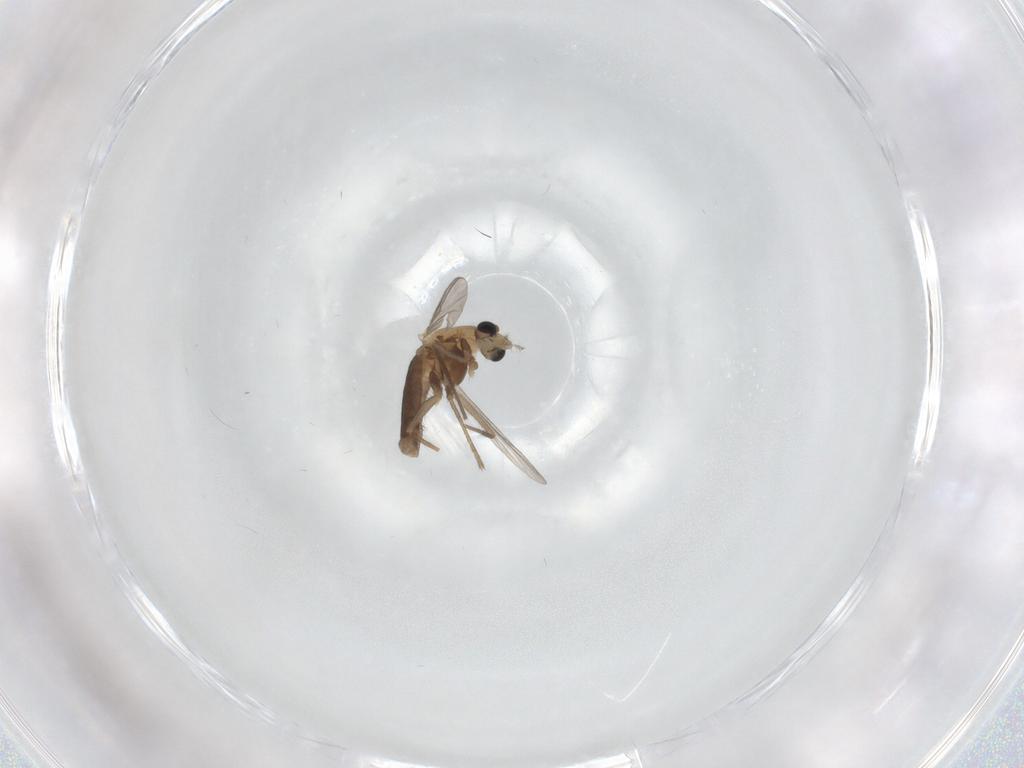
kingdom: Animalia
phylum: Arthropoda
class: Insecta
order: Diptera
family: Chironomidae
